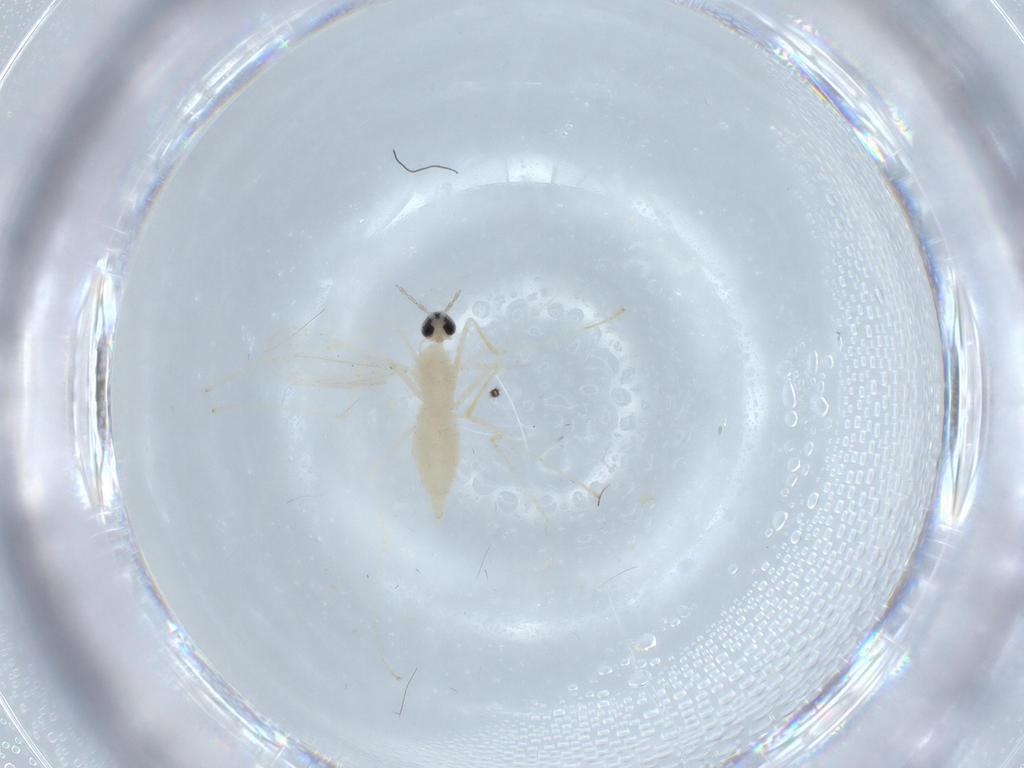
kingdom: Animalia
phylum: Arthropoda
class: Insecta
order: Diptera
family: Cecidomyiidae
